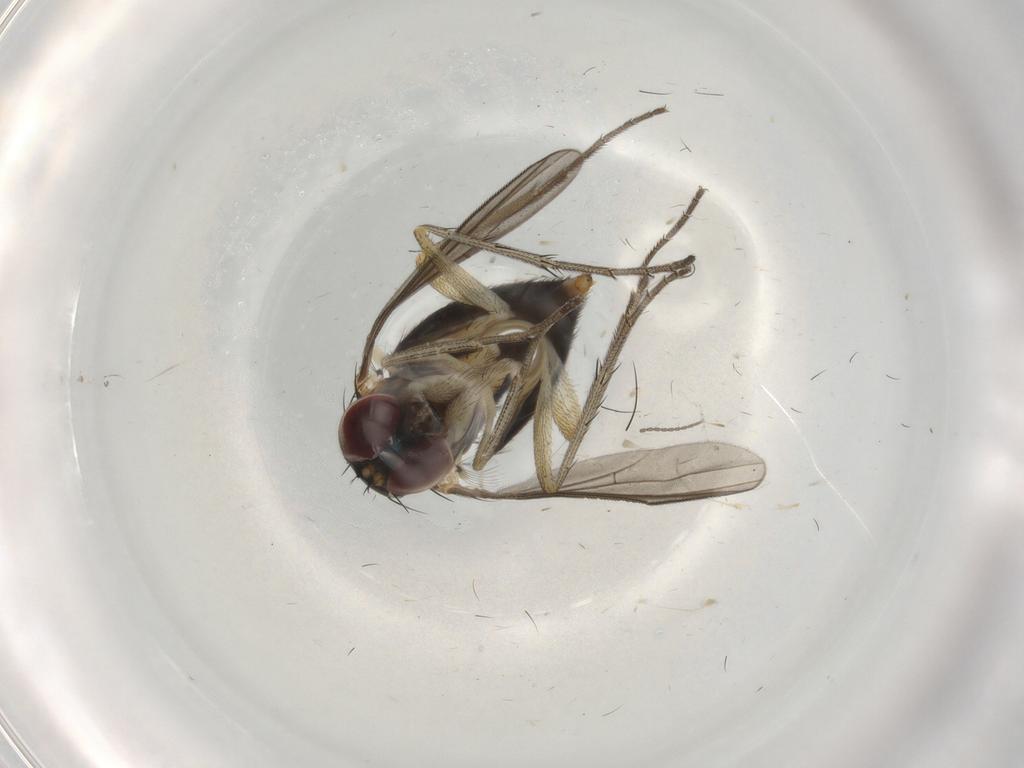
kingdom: Animalia
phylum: Arthropoda
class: Insecta
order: Diptera
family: Dolichopodidae
